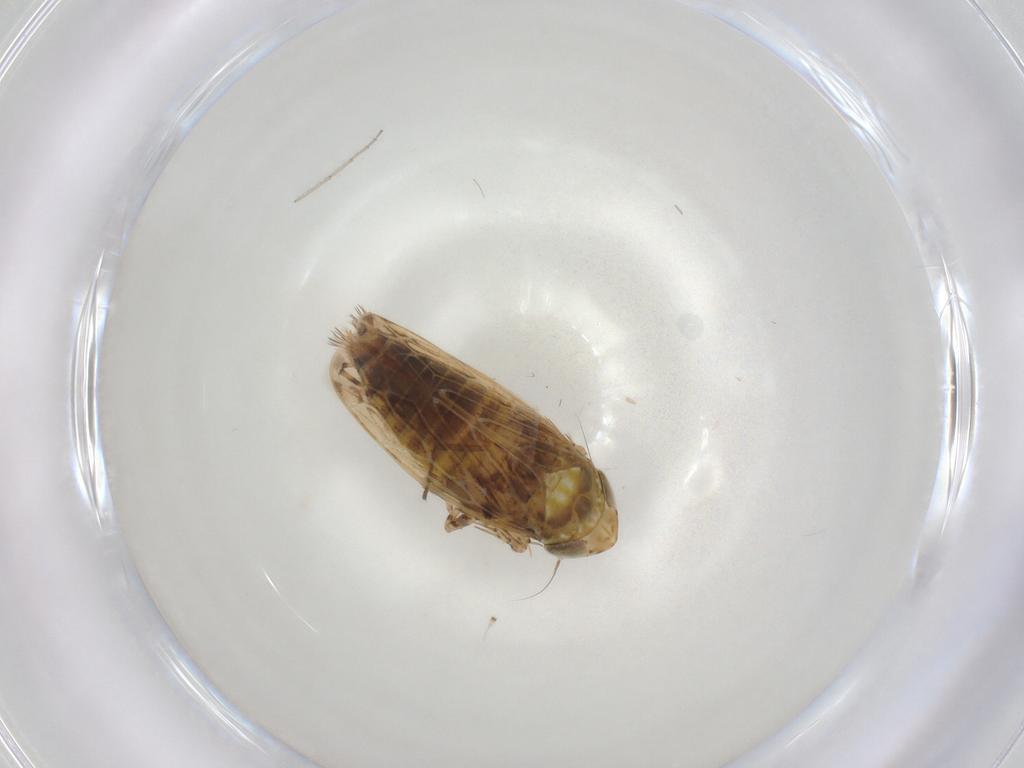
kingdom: Animalia
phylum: Arthropoda
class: Insecta
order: Hemiptera
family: Cicadellidae
